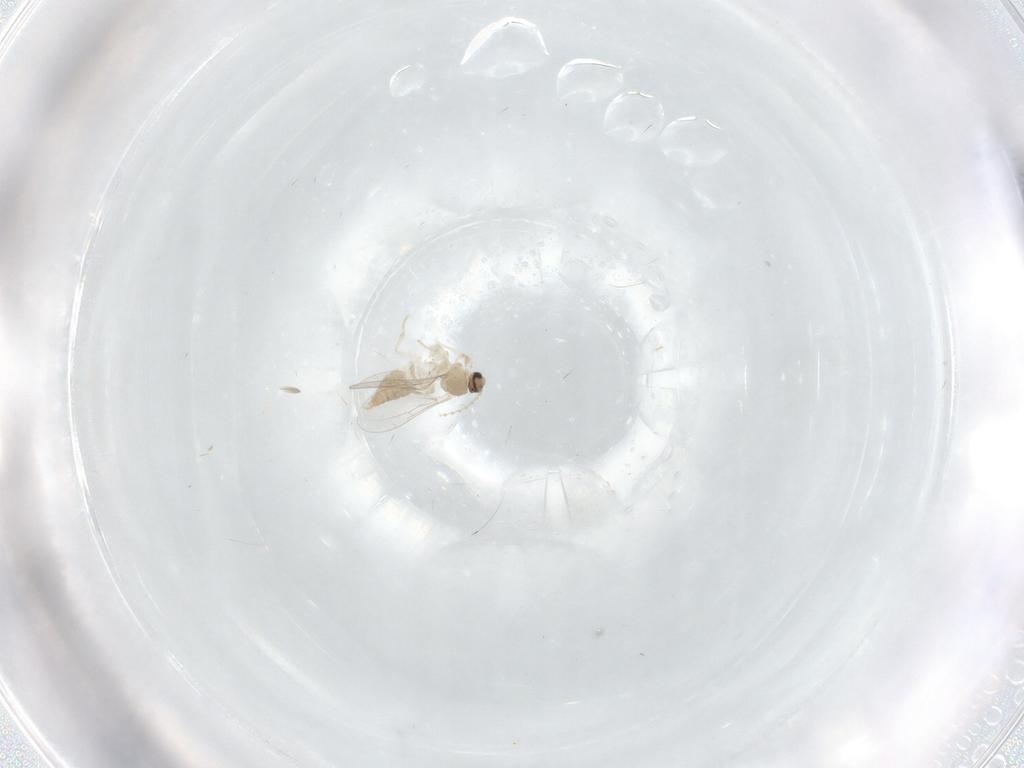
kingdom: Animalia
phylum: Arthropoda
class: Insecta
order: Diptera
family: Cecidomyiidae
